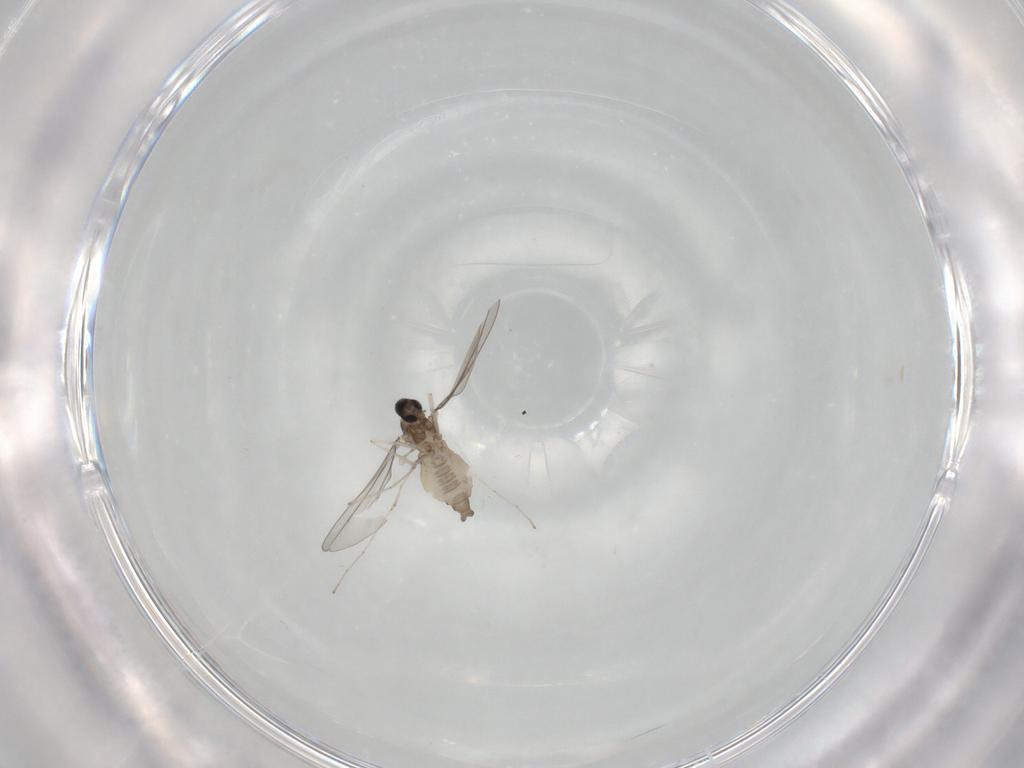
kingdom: Animalia
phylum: Arthropoda
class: Insecta
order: Diptera
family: Cecidomyiidae
